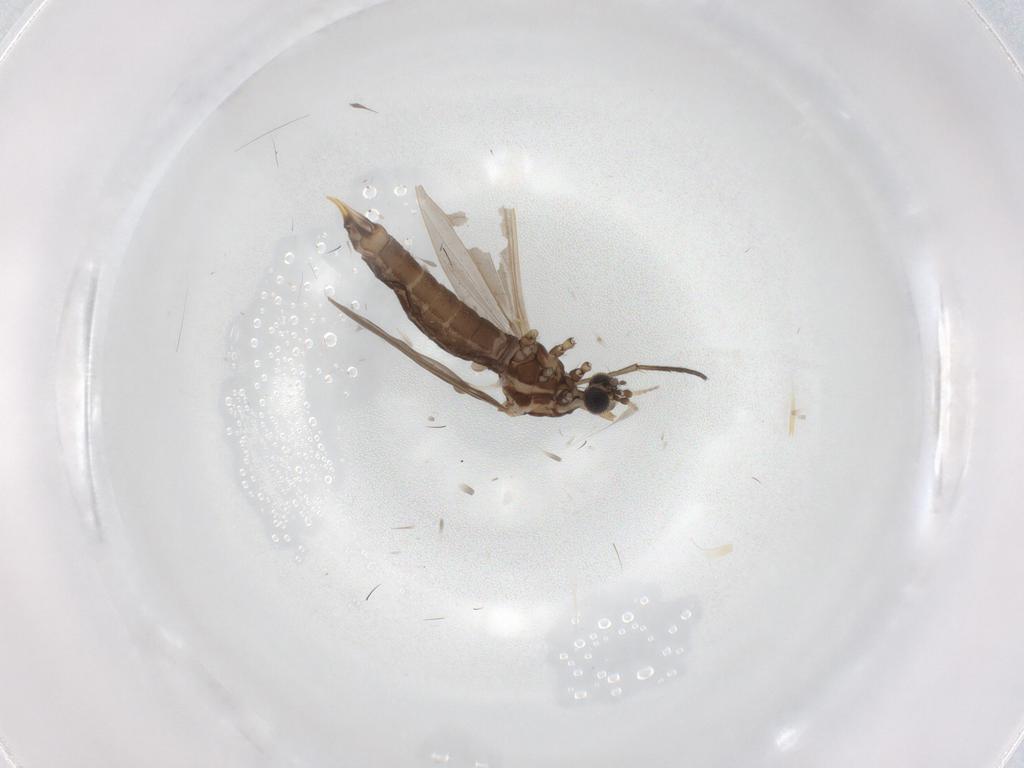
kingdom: Animalia
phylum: Arthropoda
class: Insecta
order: Diptera
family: Limoniidae
